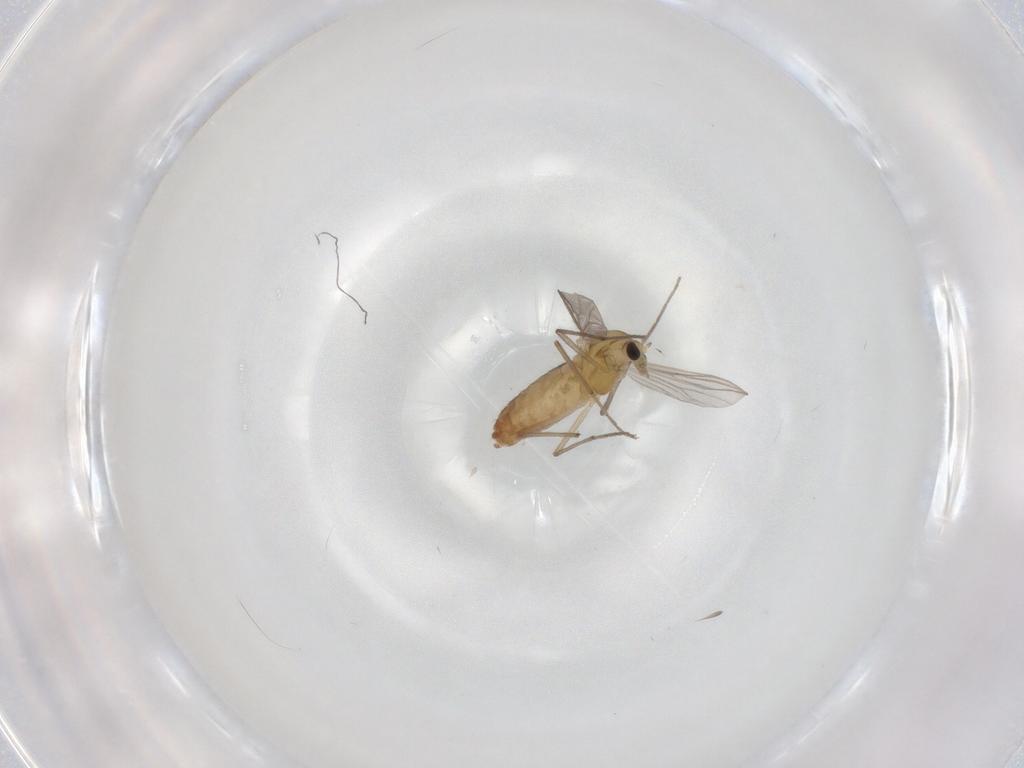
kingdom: Animalia
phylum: Arthropoda
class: Insecta
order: Diptera
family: Chironomidae
